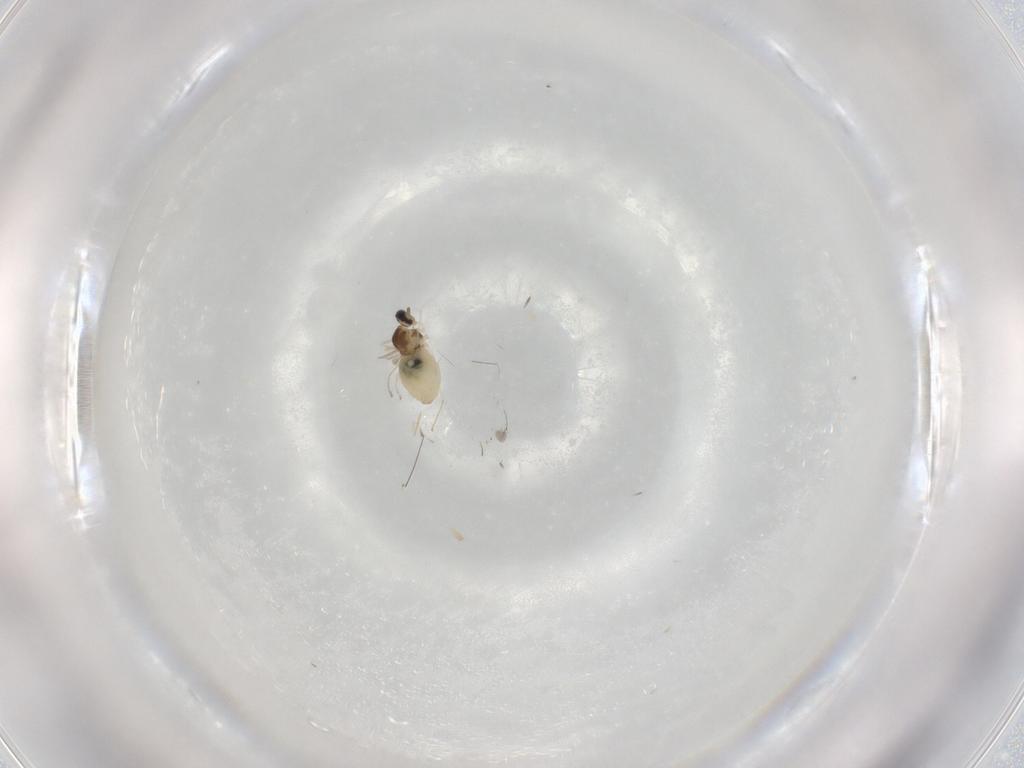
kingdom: Animalia
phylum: Arthropoda
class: Insecta
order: Diptera
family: Cecidomyiidae
